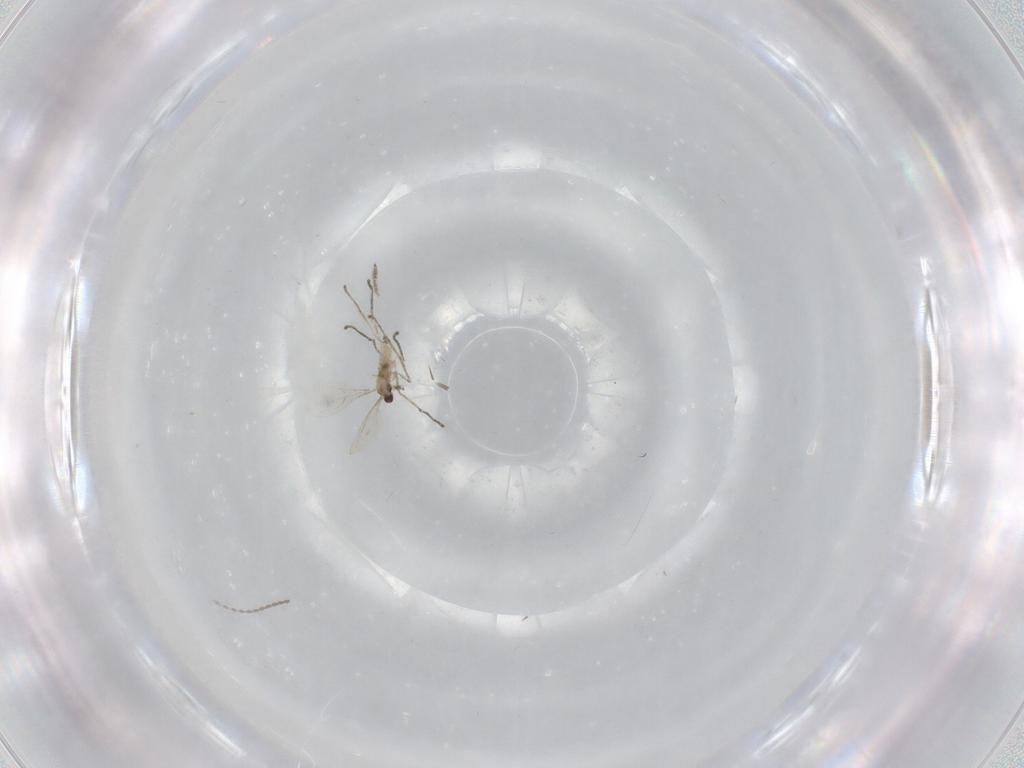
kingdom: Animalia
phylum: Arthropoda
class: Insecta
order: Diptera
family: Cecidomyiidae
